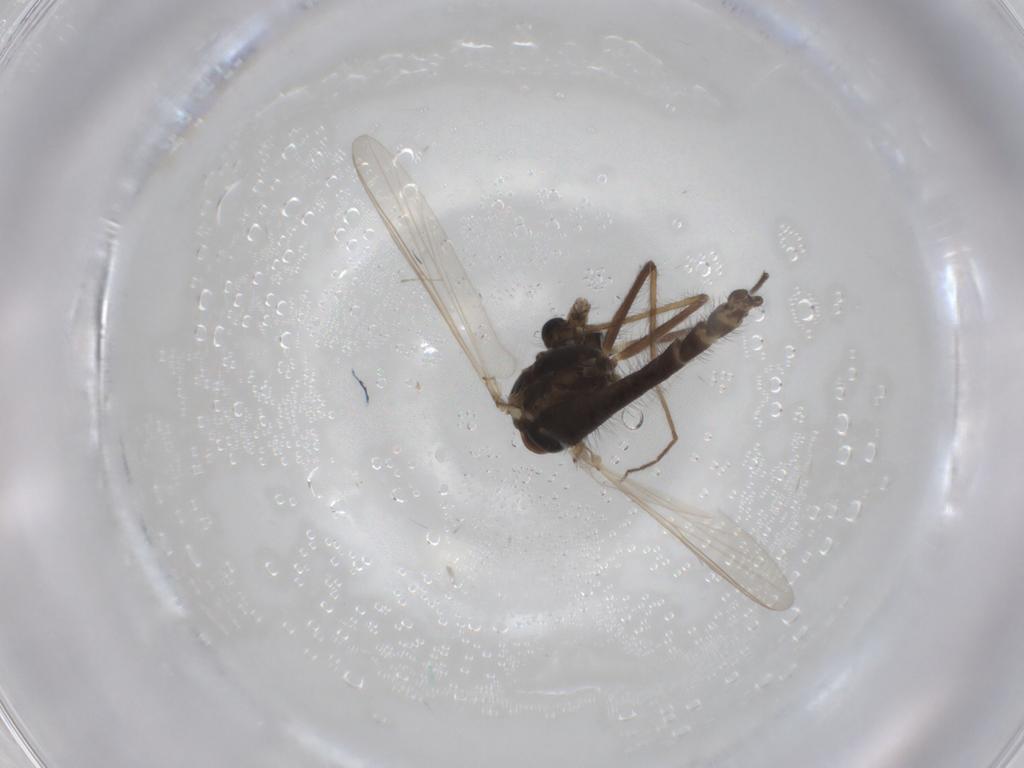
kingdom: Animalia
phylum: Arthropoda
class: Insecta
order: Diptera
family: Chironomidae
